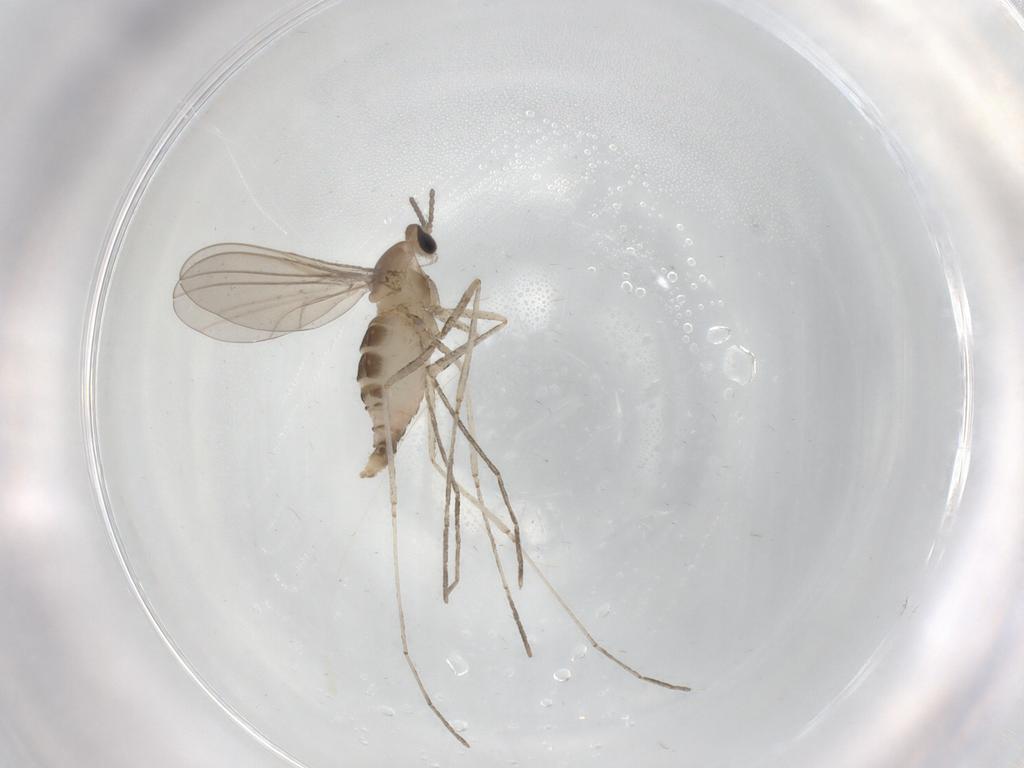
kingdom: Animalia
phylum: Arthropoda
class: Insecta
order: Diptera
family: Cecidomyiidae
